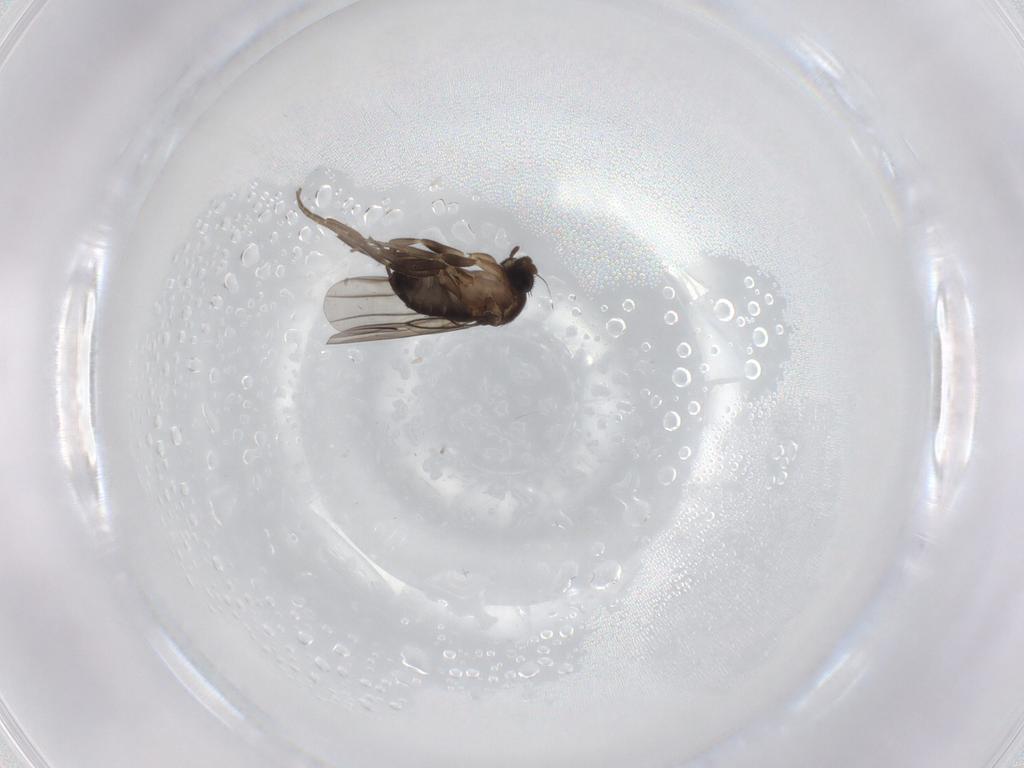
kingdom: Animalia
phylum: Arthropoda
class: Insecta
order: Diptera
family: Phoridae
